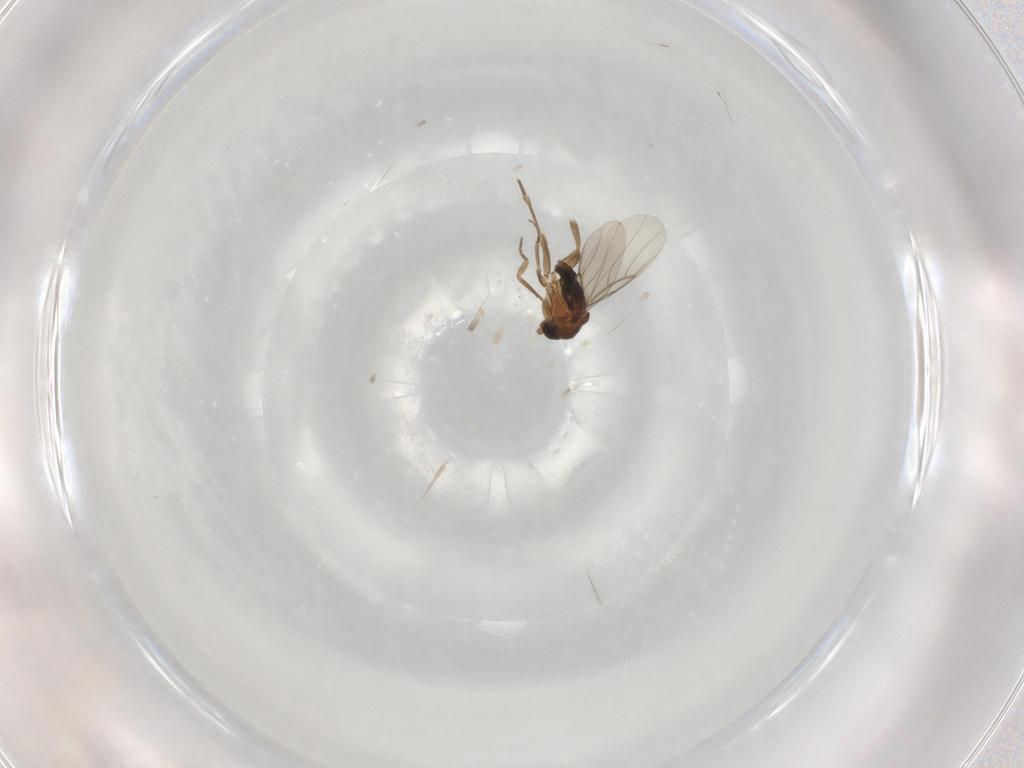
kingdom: Animalia
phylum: Arthropoda
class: Insecta
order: Diptera
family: Phoridae
